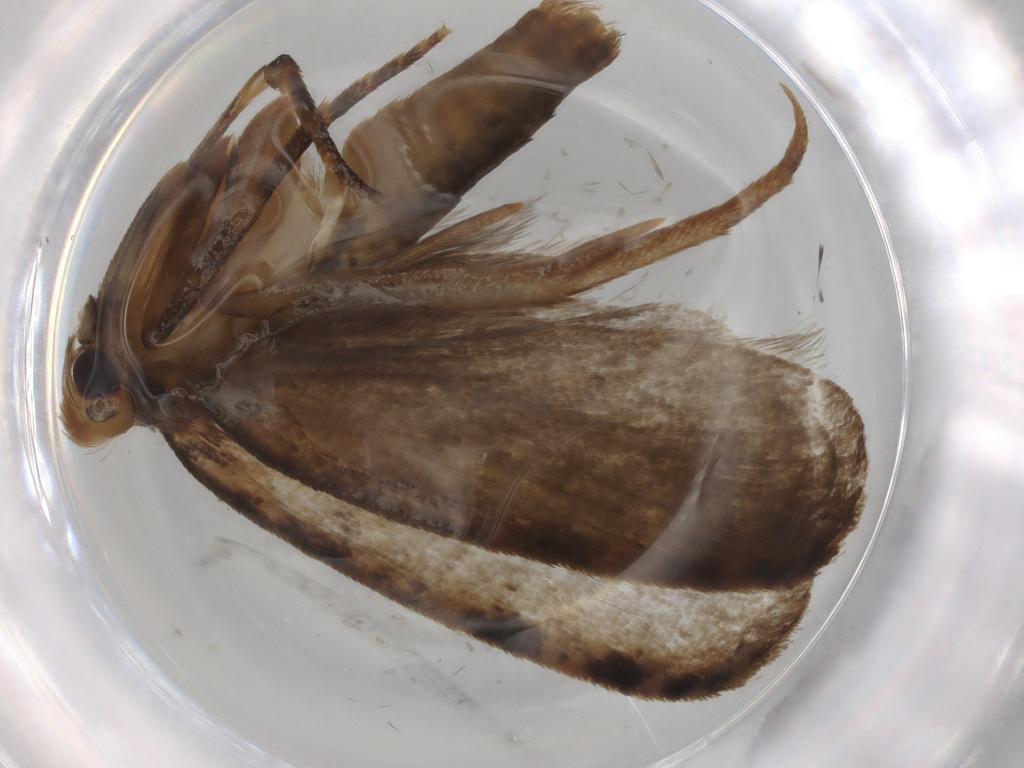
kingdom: Animalia
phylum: Arthropoda
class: Insecta
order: Lepidoptera
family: Tineidae
